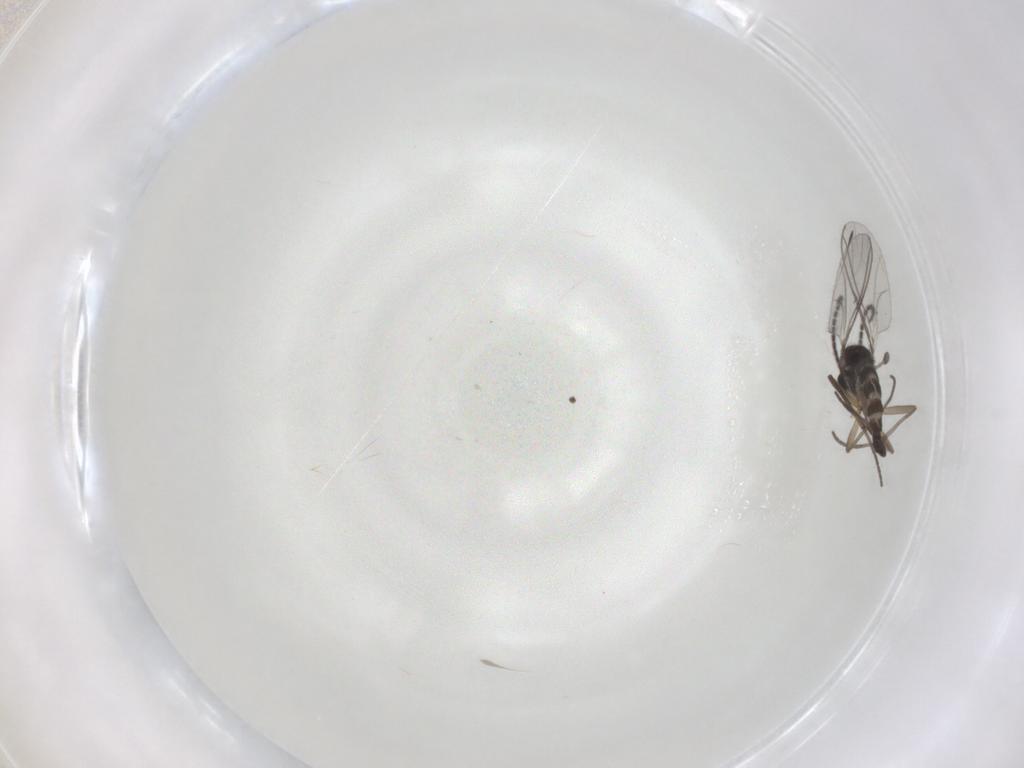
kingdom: Animalia
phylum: Arthropoda
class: Insecta
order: Diptera
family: Sciaridae
